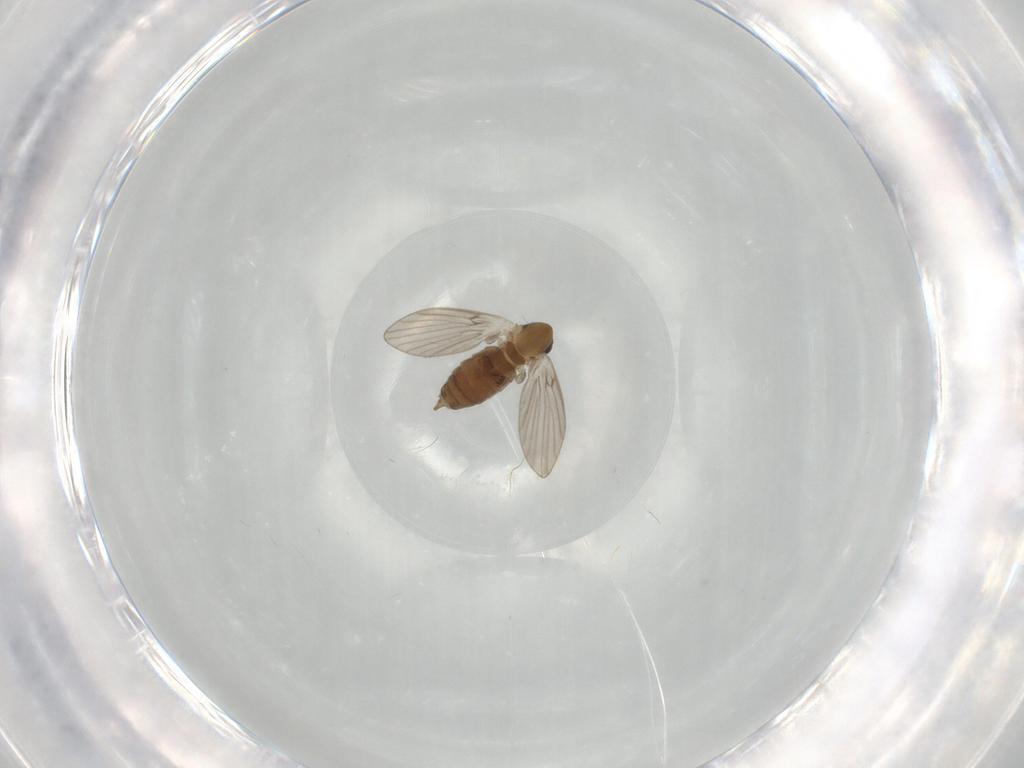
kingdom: Animalia
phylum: Arthropoda
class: Insecta
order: Diptera
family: Psychodidae
